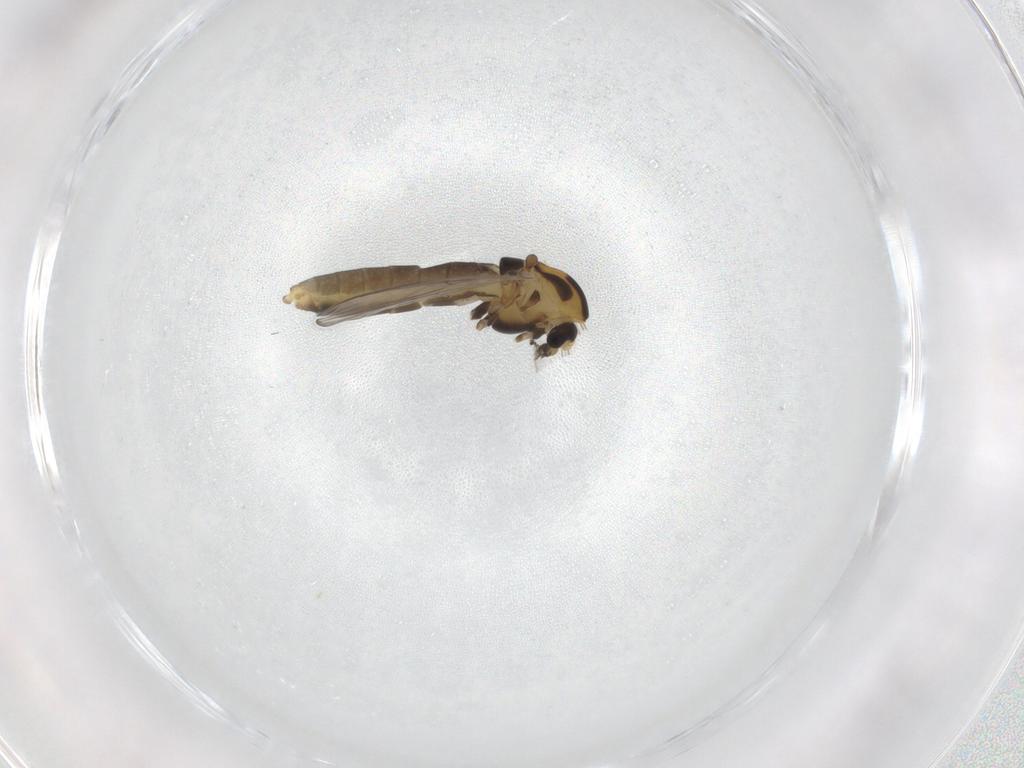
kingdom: Animalia
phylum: Arthropoda
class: Insecta
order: Diptera
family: Chironomidae
